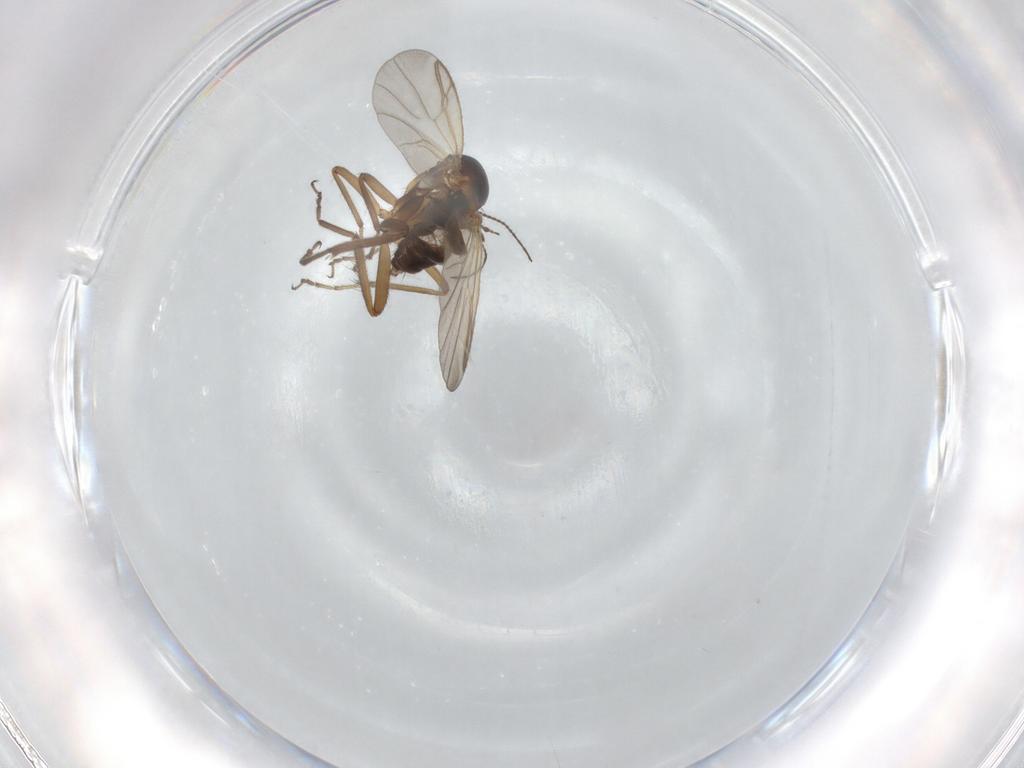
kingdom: Animalia
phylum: Arthropoda
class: Insecta
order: Diptera
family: Ceratopogonidae
